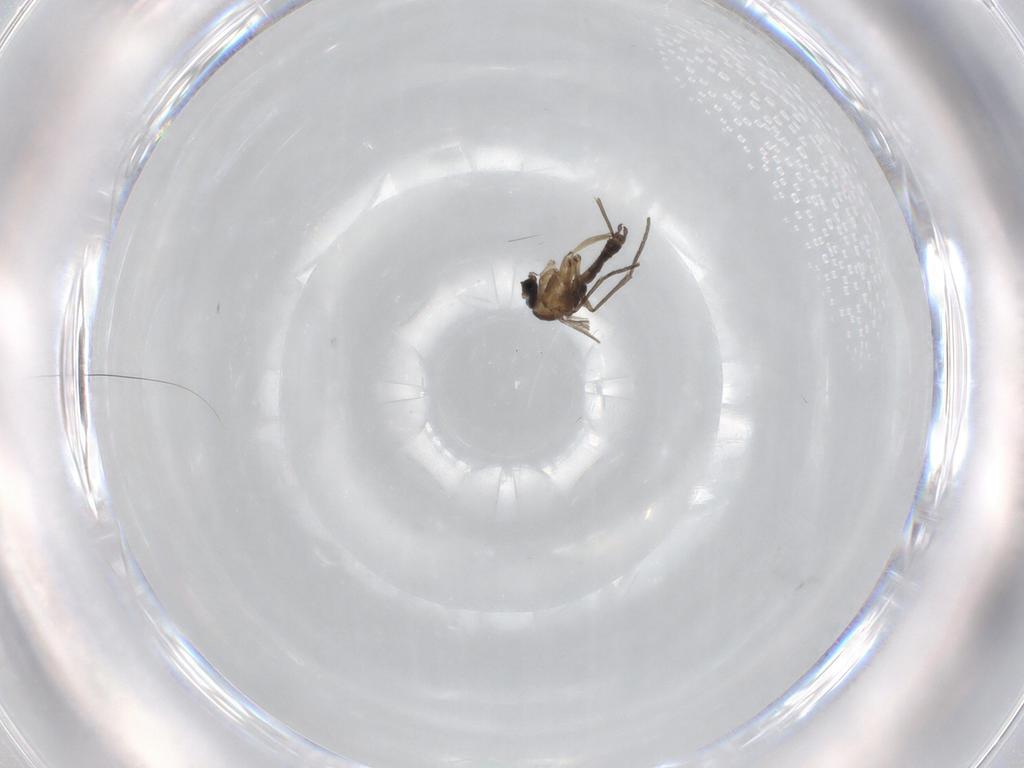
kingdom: Animalia
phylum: Arthropoda
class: Insecta
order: Diptera
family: Sciaridae
